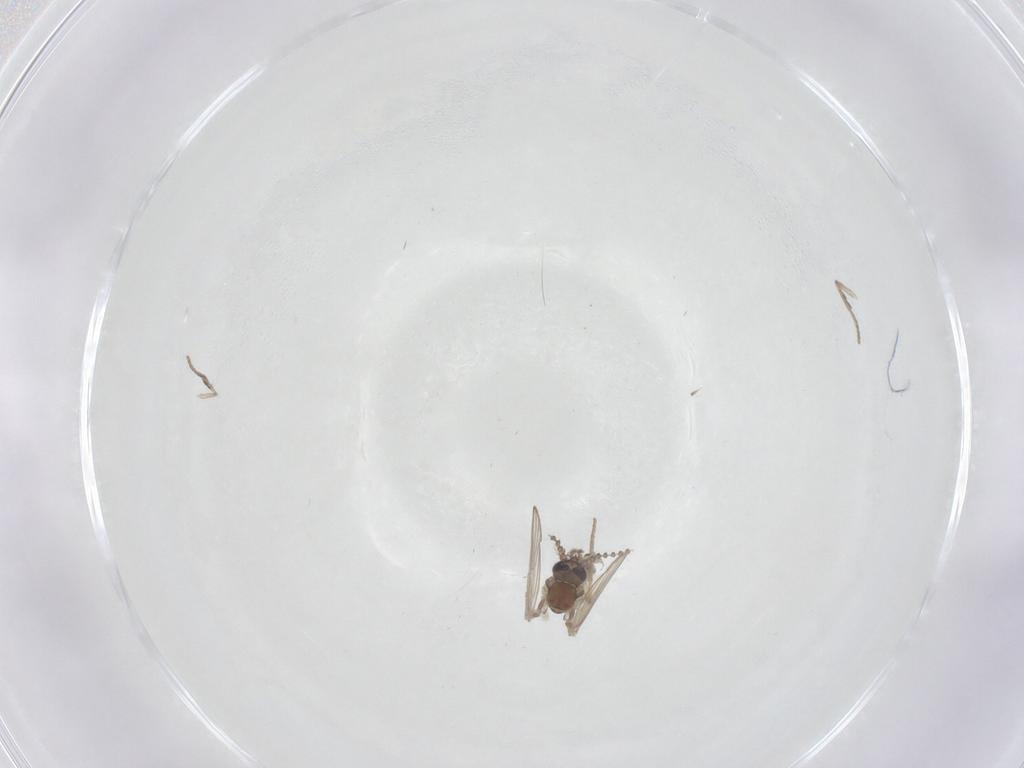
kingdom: Animalia
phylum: Arthropoda
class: Insecta
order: Diptera
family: Psychodidae
